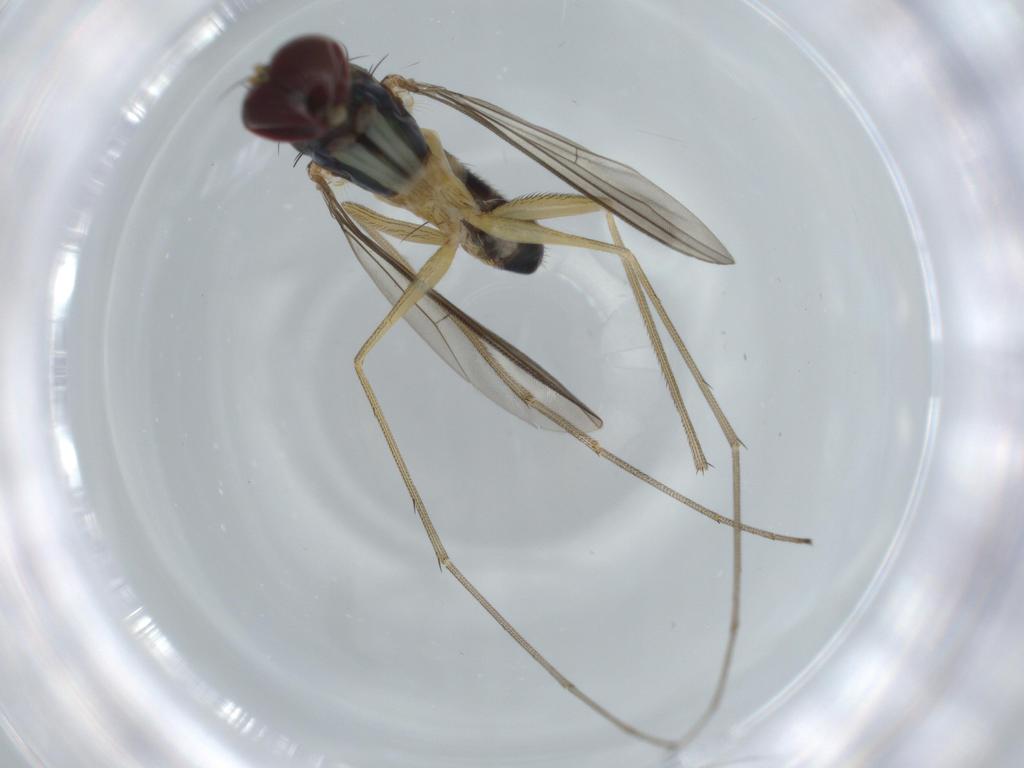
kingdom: Animalia
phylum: Arthropoda
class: Insecta
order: Diptera
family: Dolichopodidae
